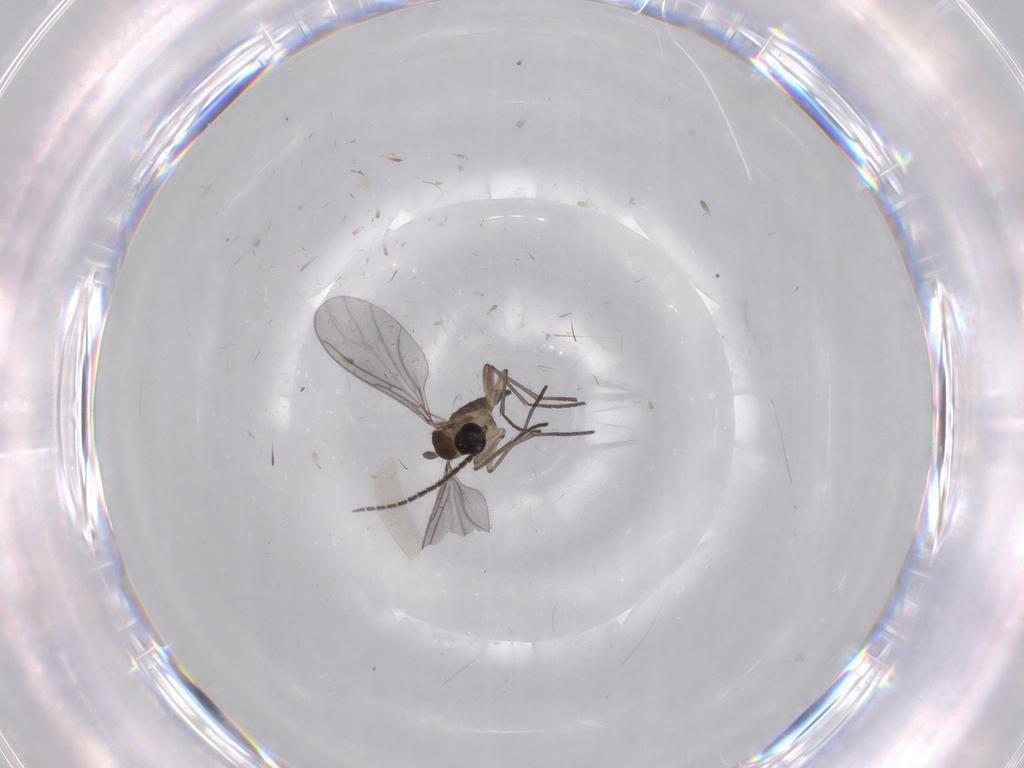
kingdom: Animalia
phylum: Arthropoda
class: Insecta
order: Diptera
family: Sciaridae
